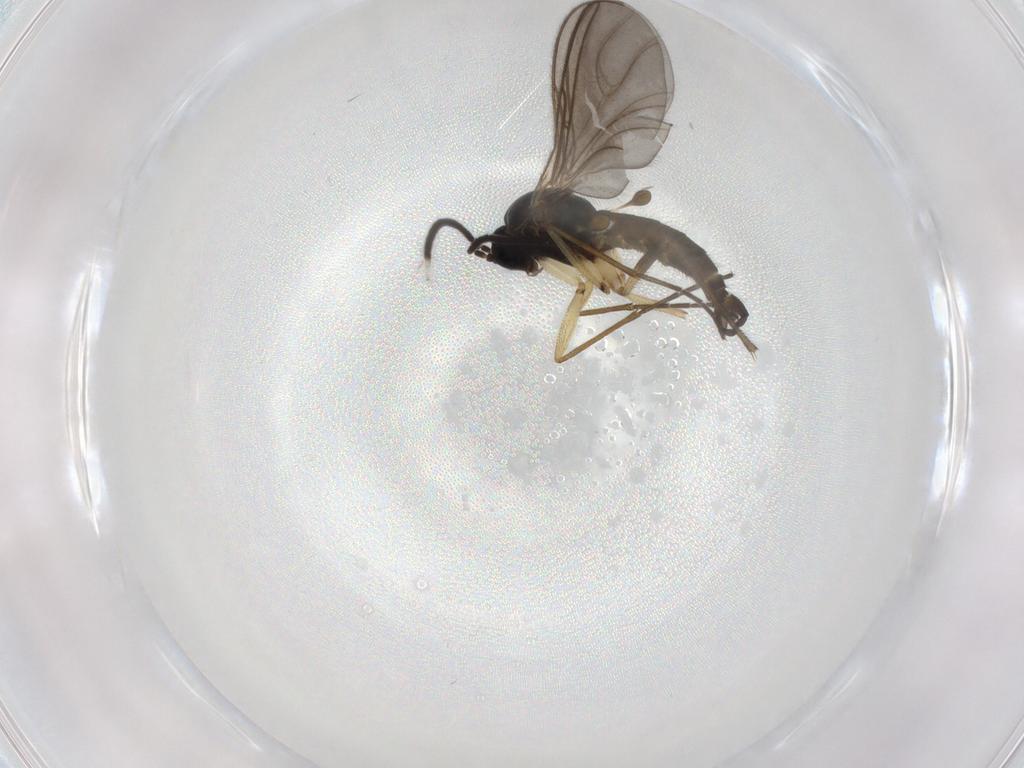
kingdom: Animalia
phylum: Arthropoda
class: Insecta
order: Diptera
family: Sciaridae
